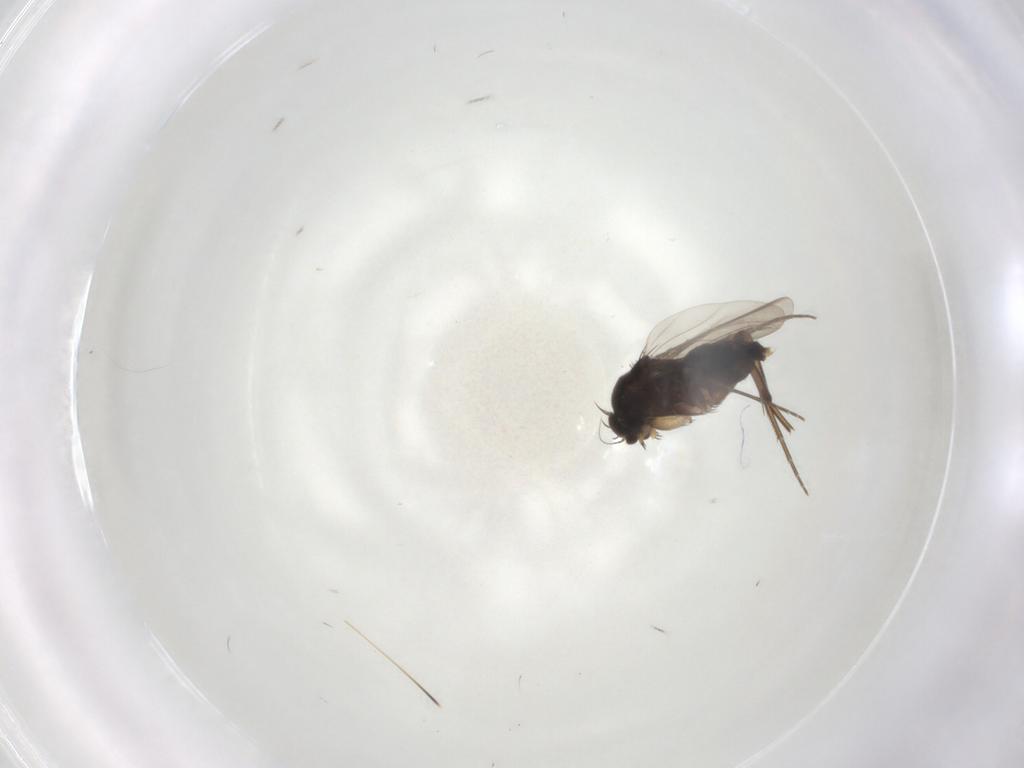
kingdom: Animalia
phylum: Arthropoda
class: Insecta
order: Diptera
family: Phoridae
